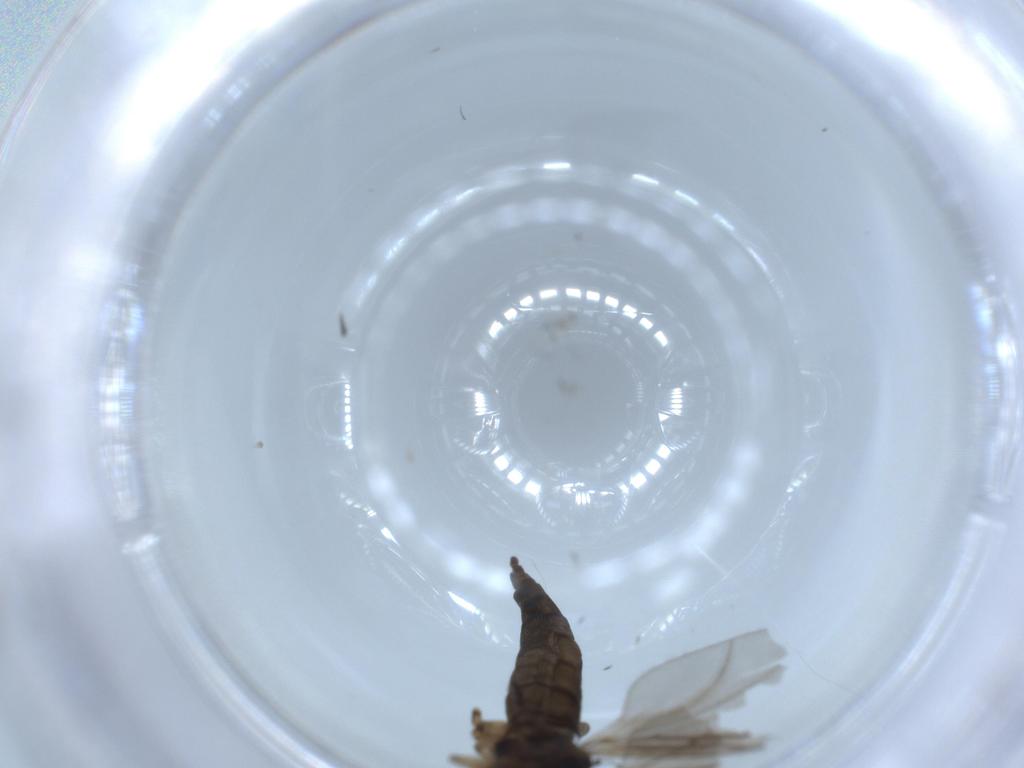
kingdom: Animalia
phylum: Arthropoda
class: Insecta
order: Diptera
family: Sciaridae
